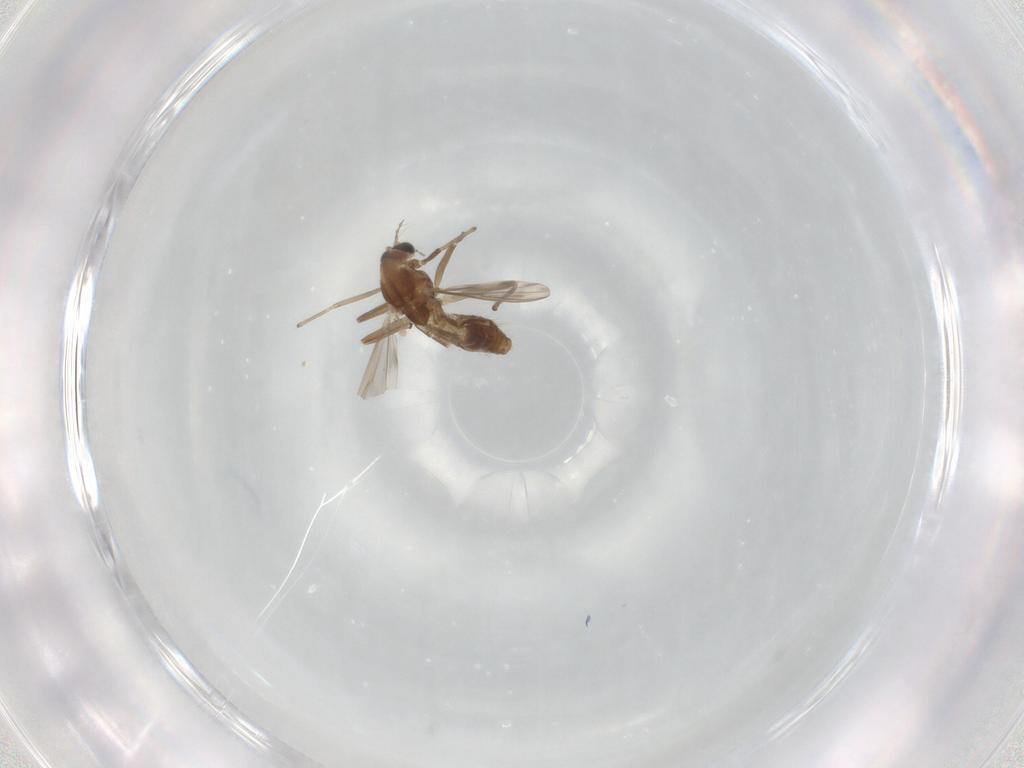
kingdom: Animalia
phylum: Arthropoda
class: Insecta
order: Diptera
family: Chironomidae
